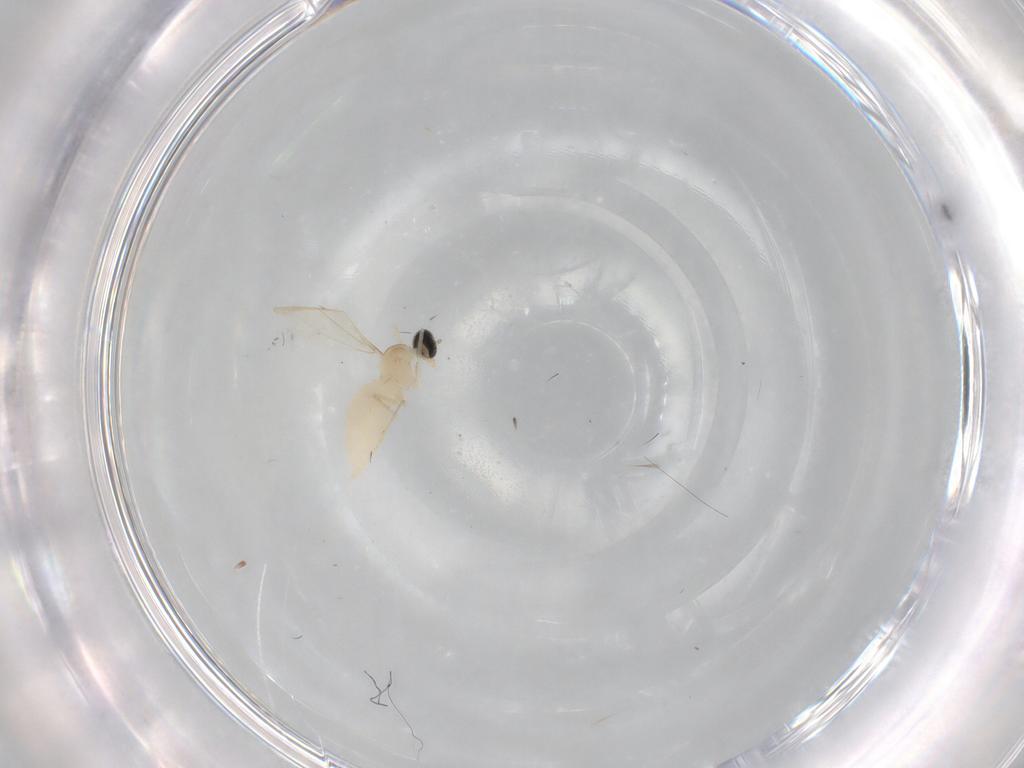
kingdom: Animalia
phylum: Arthropoda
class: Insecta
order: Diptera
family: Cecidomyiidae
